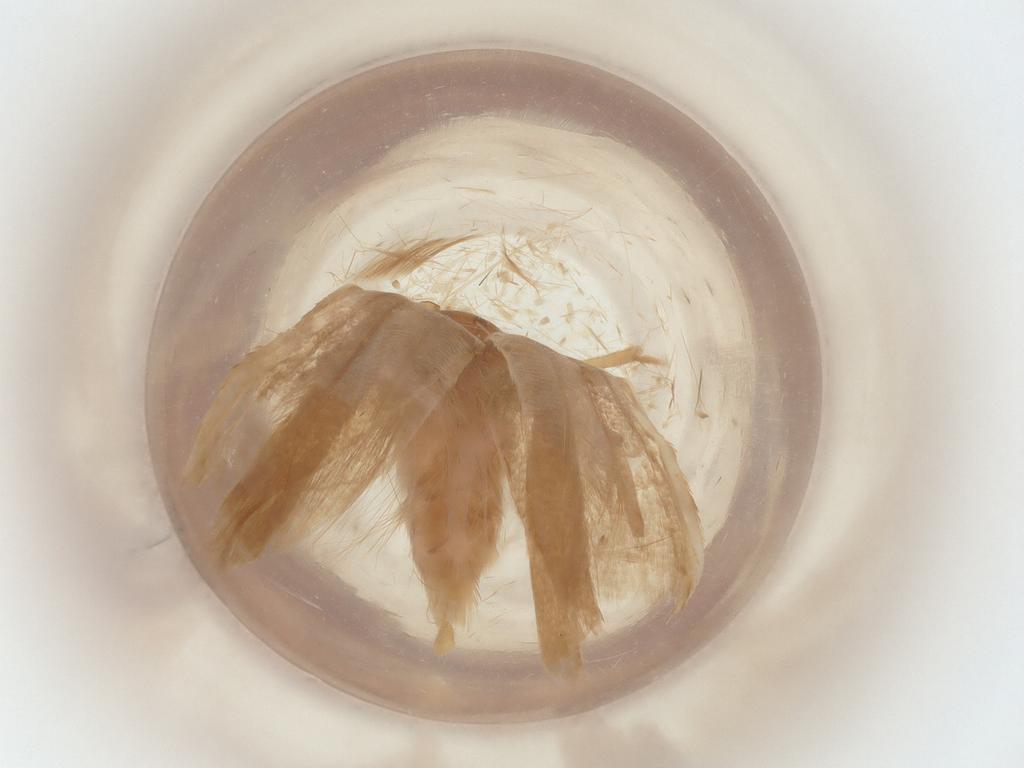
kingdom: Animalia
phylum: Arthropoda
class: Insecta
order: Lepidoptera
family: Gelechiidae
